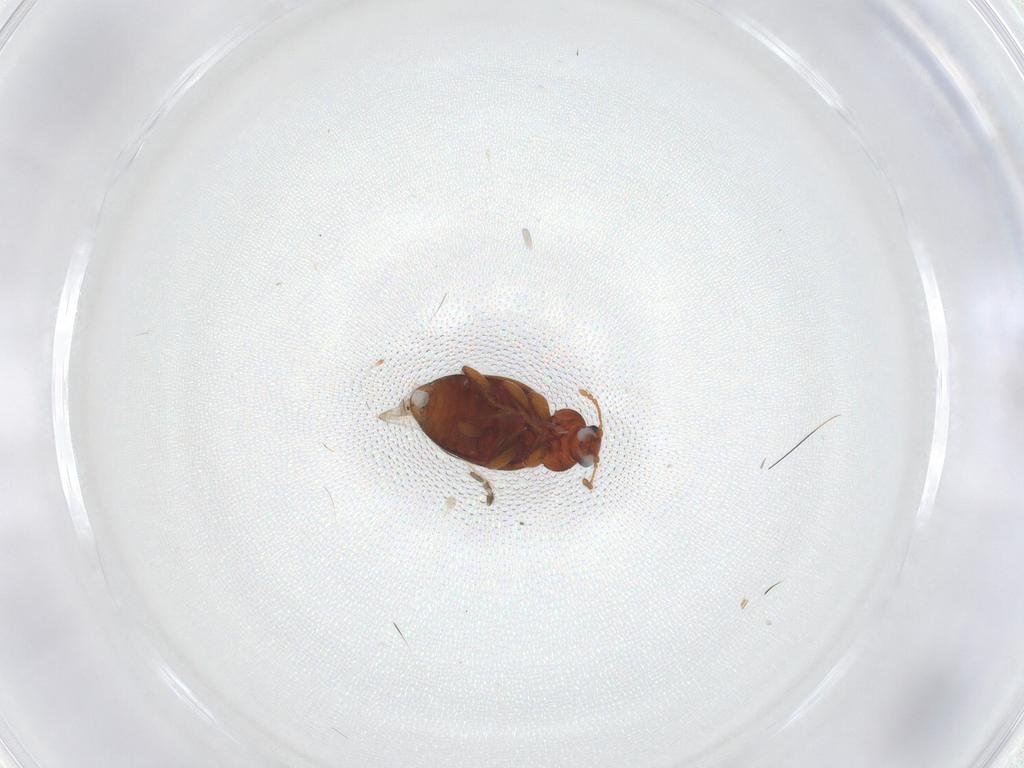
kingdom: Animalia
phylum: Arthropoda
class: Insecta
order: Coleoptera
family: Latridiidae
